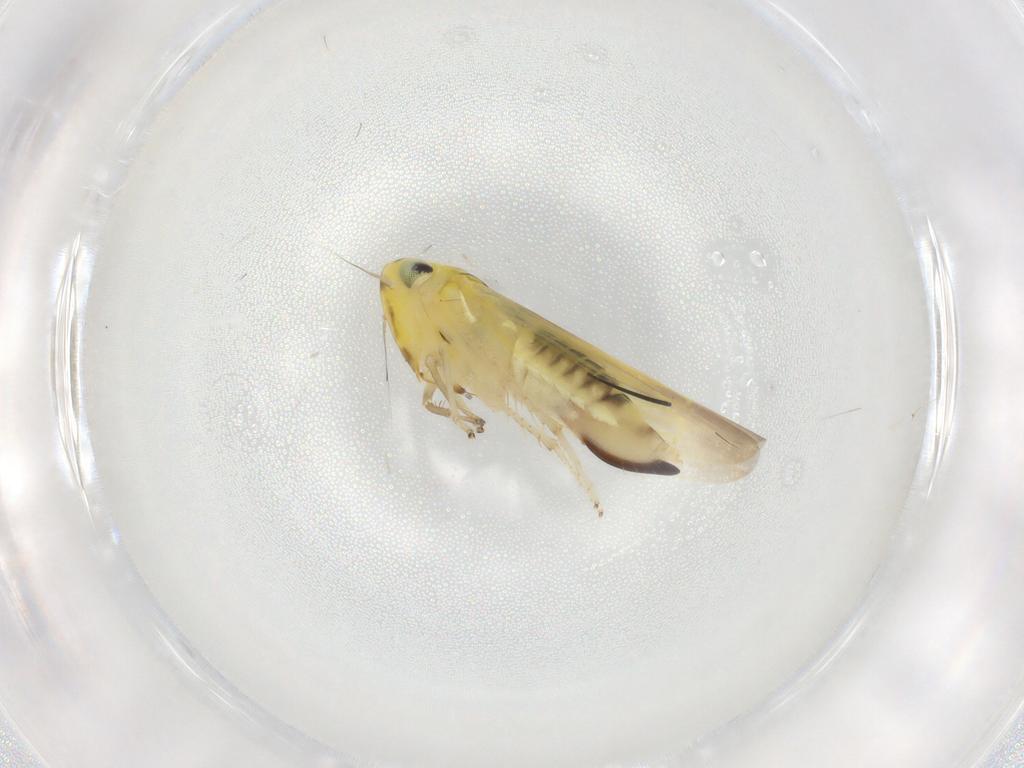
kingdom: Animalia
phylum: Arthropoda
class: Insecta
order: Hemiptera
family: Cicadellidae
